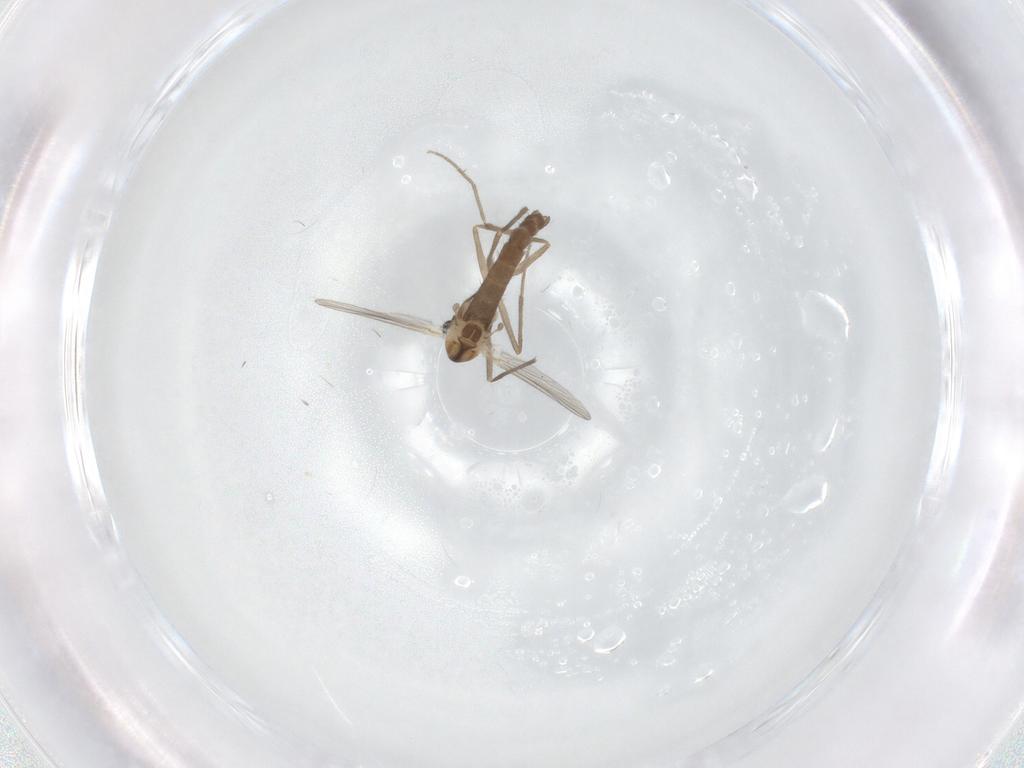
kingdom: Animalia
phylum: Arthropoda
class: Insecta
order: Diptera
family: Chironomidae
